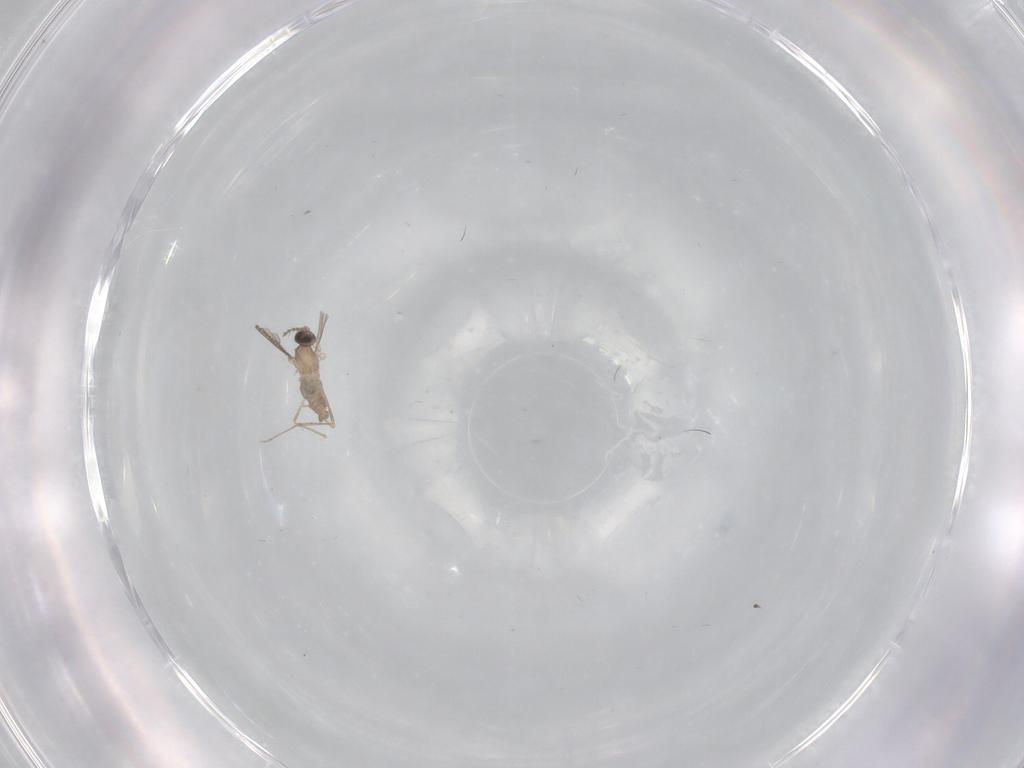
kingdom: Animalia
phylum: Arthropoda
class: Insecta
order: Diptera
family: Cecidomyiidae
